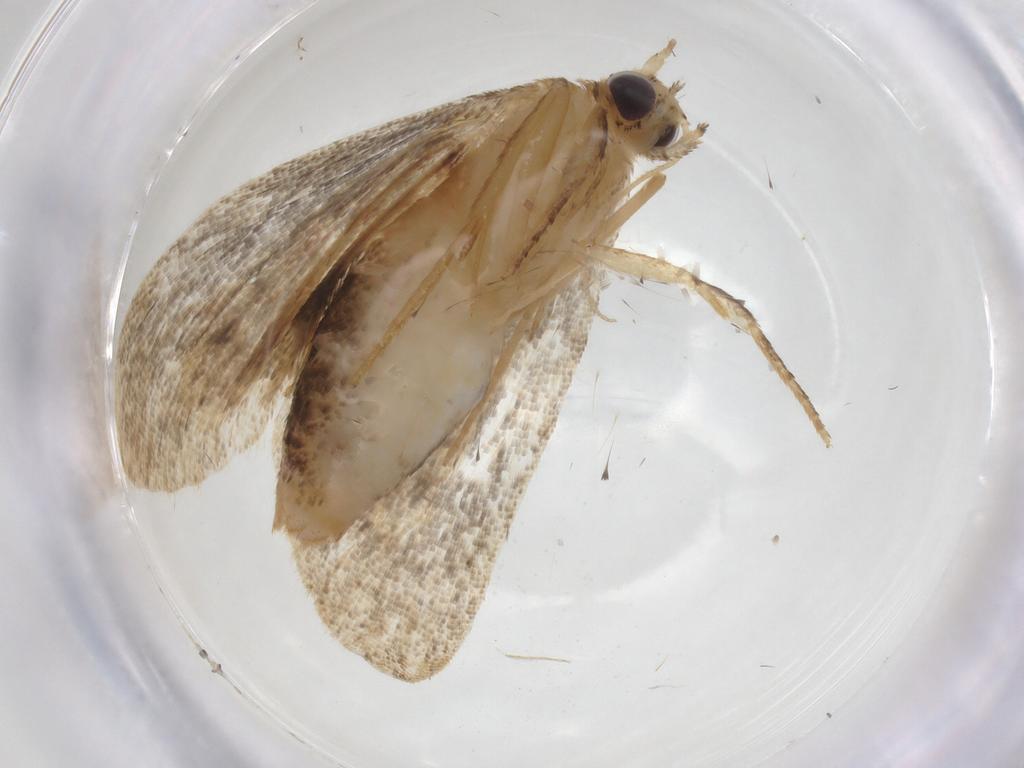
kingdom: Animalia
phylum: Arthropoda
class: Insecta
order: Lepidoptera
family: Erebidae
